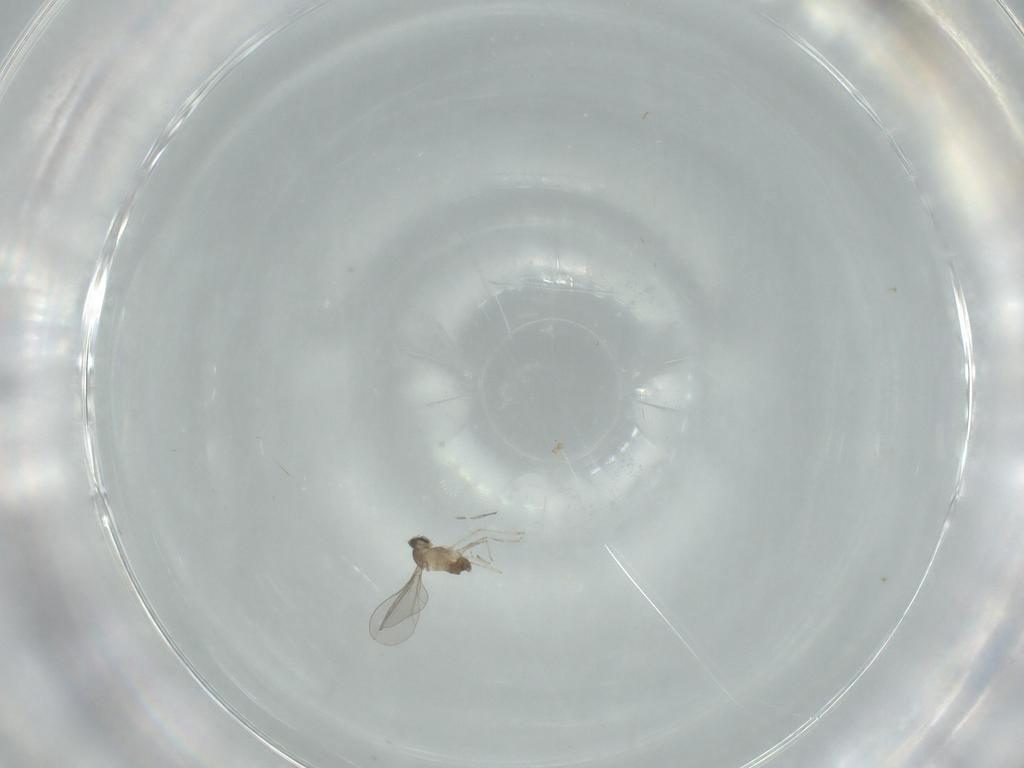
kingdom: Animalia
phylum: Arthropoda
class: Insecta
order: Diptera
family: Cecidomyiidae
